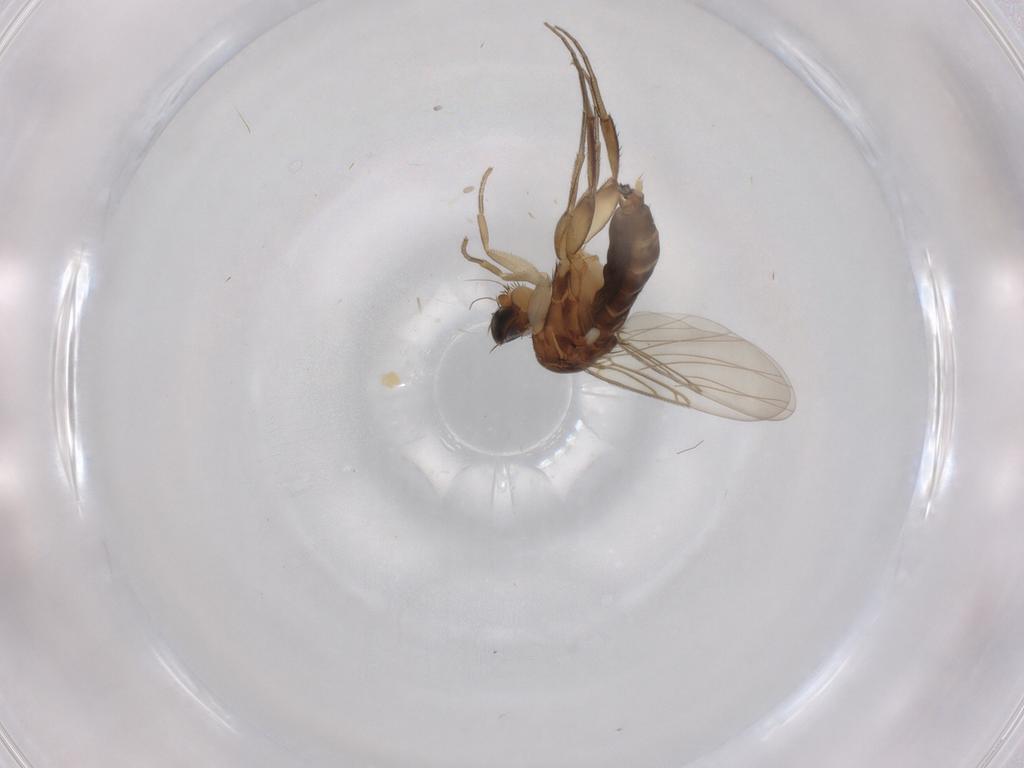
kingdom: Animalia
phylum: Arthropoda
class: Insecta
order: Diptera
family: Phoridae
